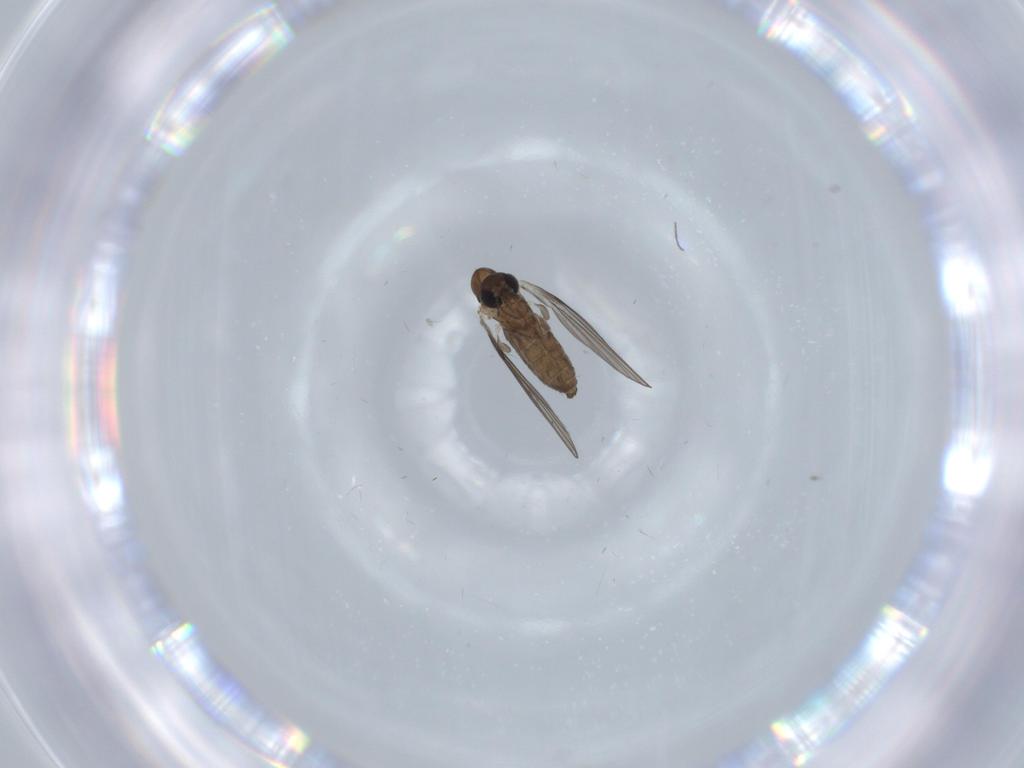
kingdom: Animalia
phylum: Arthropoda
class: Insecta
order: Diptera
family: Psychodidae
